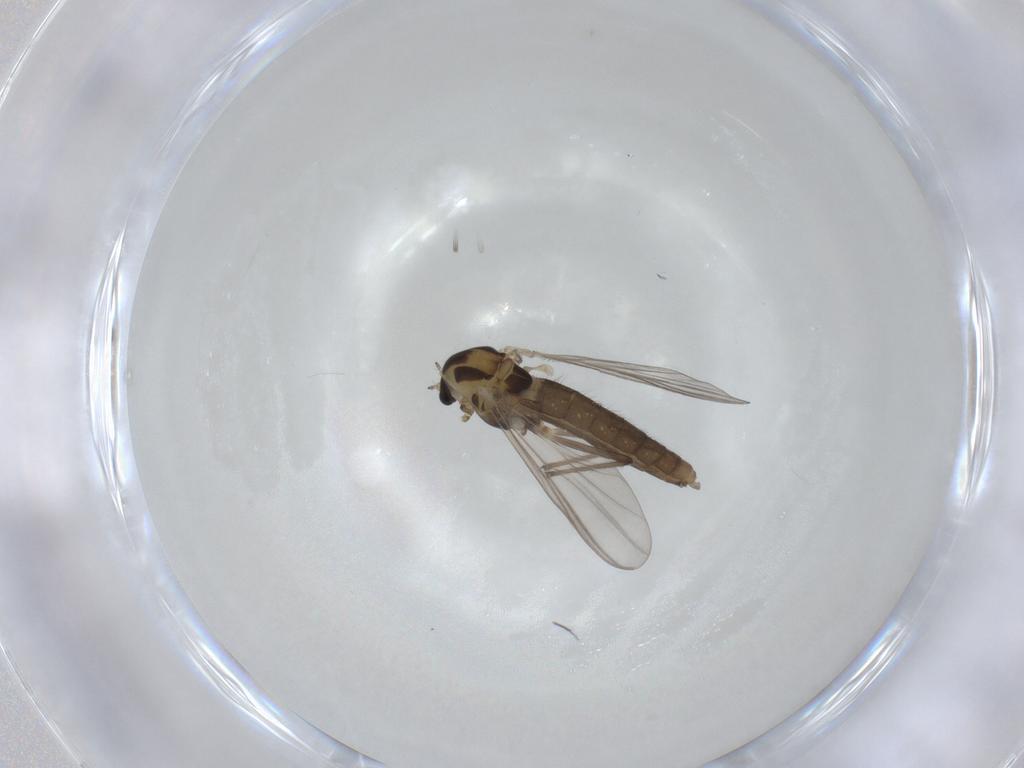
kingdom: Animalia
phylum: Arthropoda
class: Insecta
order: Diptera
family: Chironomidae
